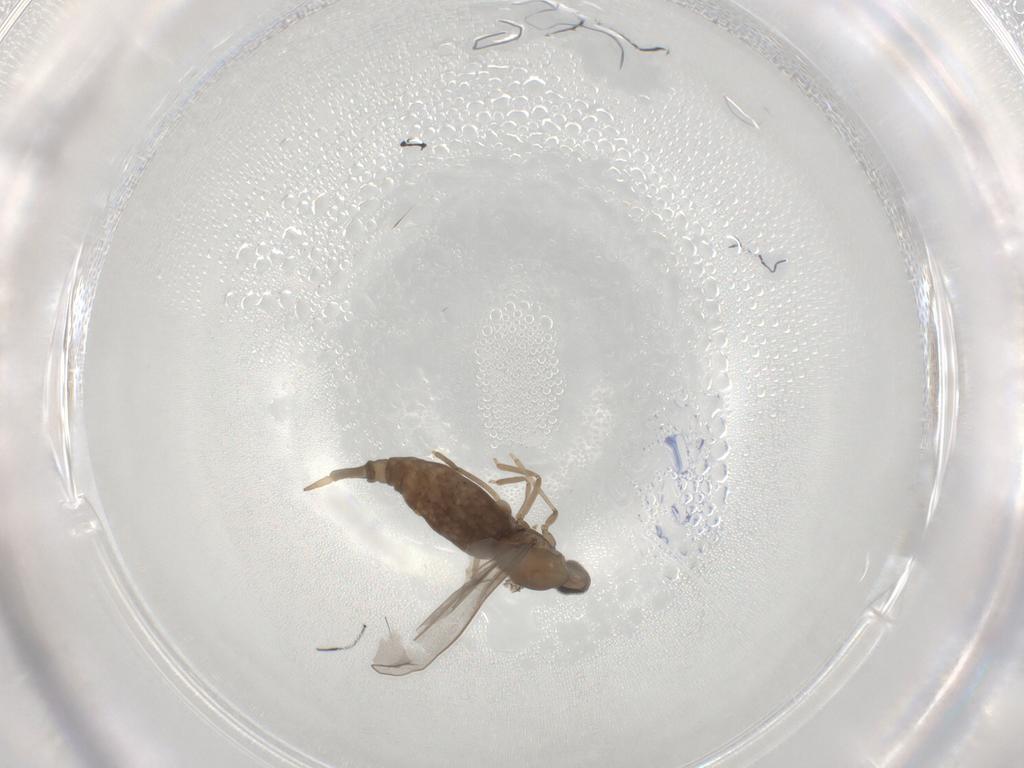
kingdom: Animalia
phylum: Arthropoda
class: Insecta
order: Diptera
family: Cecidomyiidae
